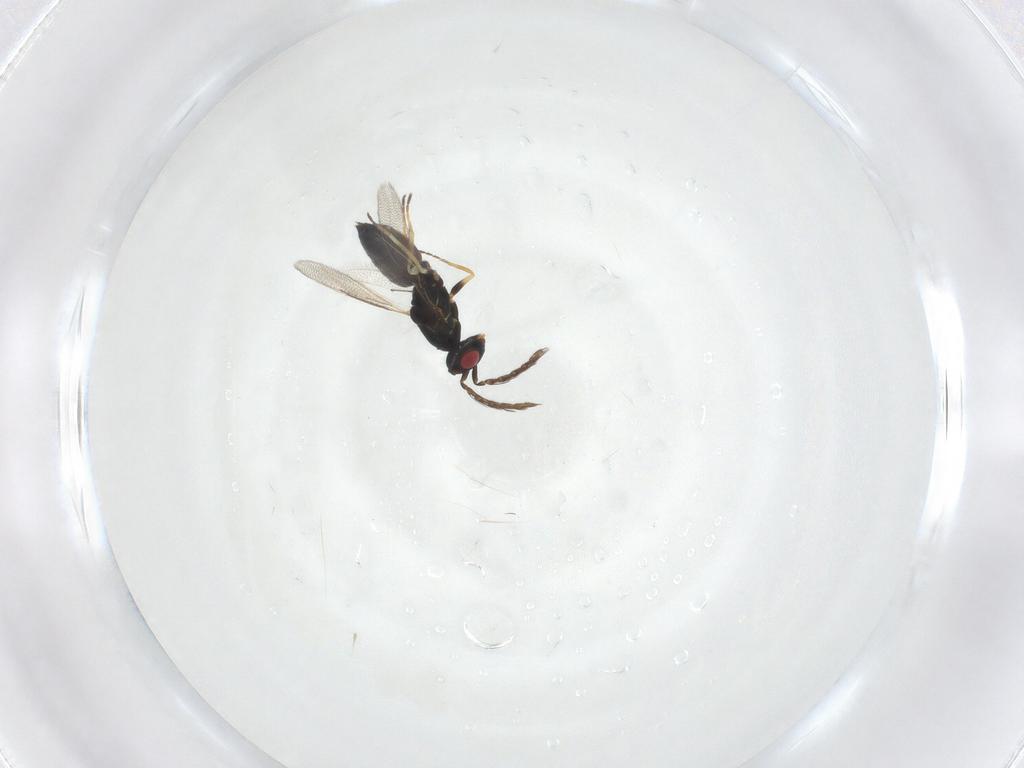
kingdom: Animalia
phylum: Arthropoda
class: Insecta
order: Hymenoptera
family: Eulophidae
